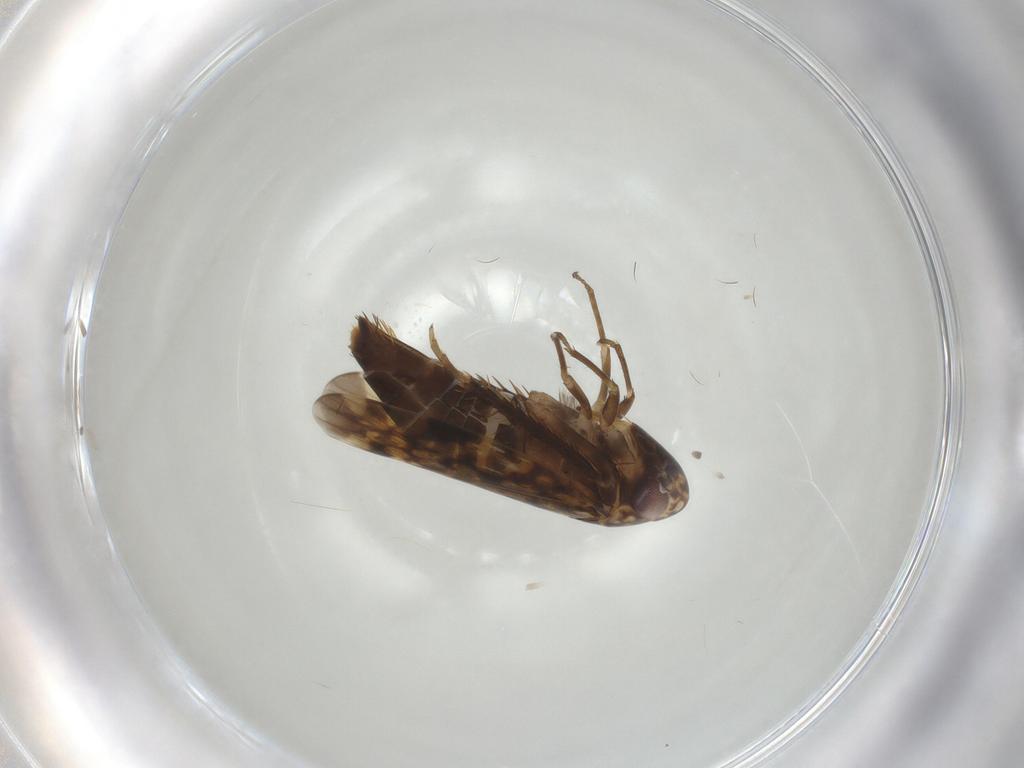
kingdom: Animalia
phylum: Arthropoda
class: Insecta
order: Hemiptera
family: Cicadellidae
